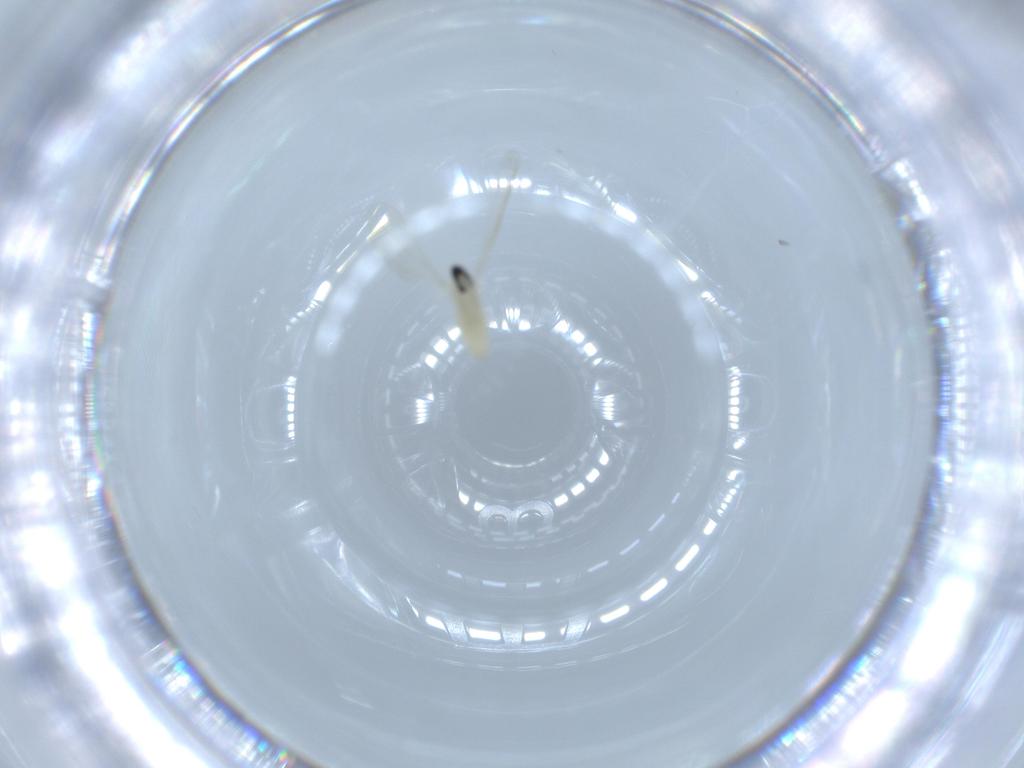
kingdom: Animalia
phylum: Arthropoda
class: Insecta
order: Diptera
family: Cecidomyiidae
